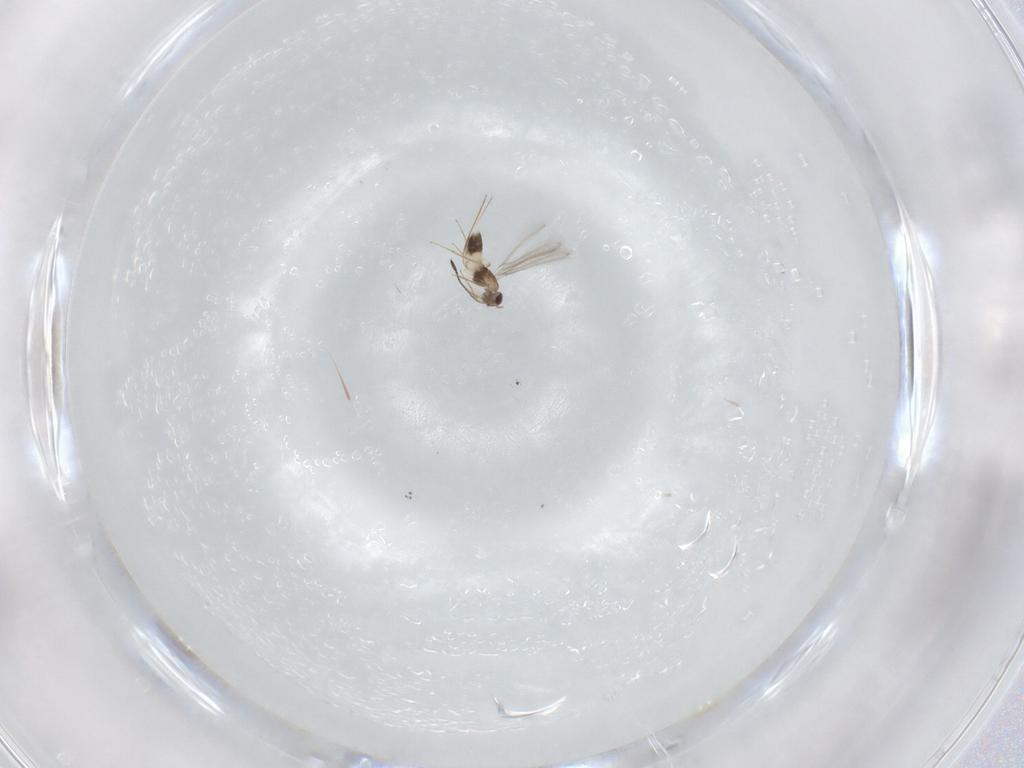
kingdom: Animalia
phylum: Arthropoda
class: Insecta
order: Hymenoptera
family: Mymaridae
